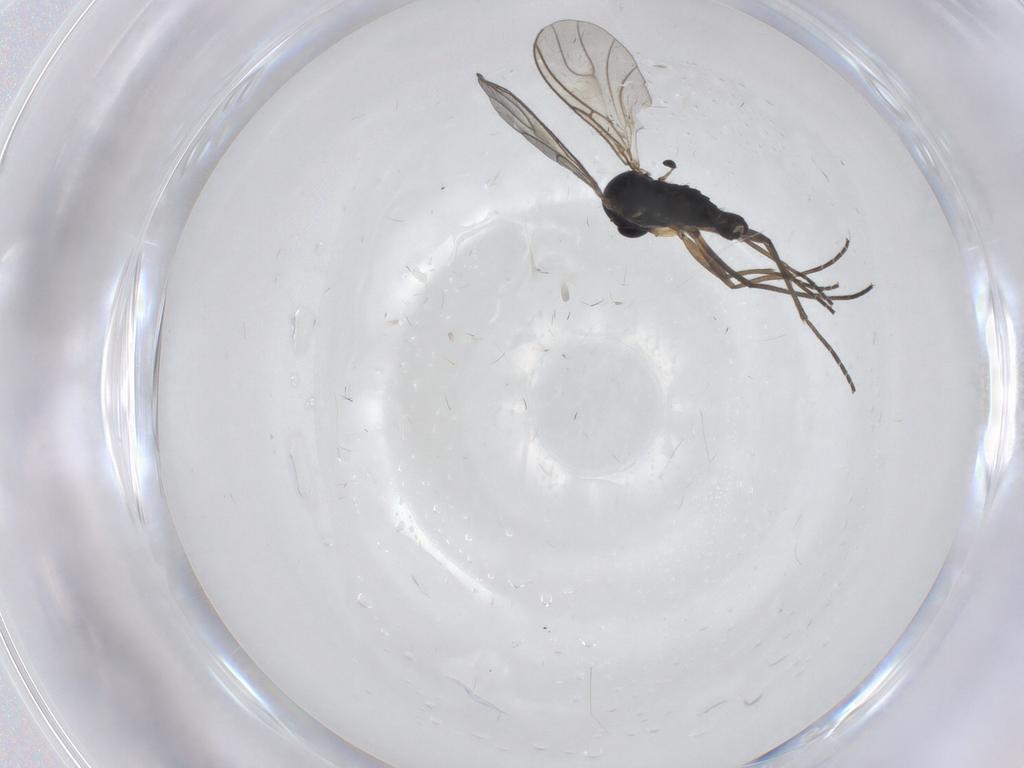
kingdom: Animalia
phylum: Arthropoda
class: Insecta
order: Diptera
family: Sciaridae
